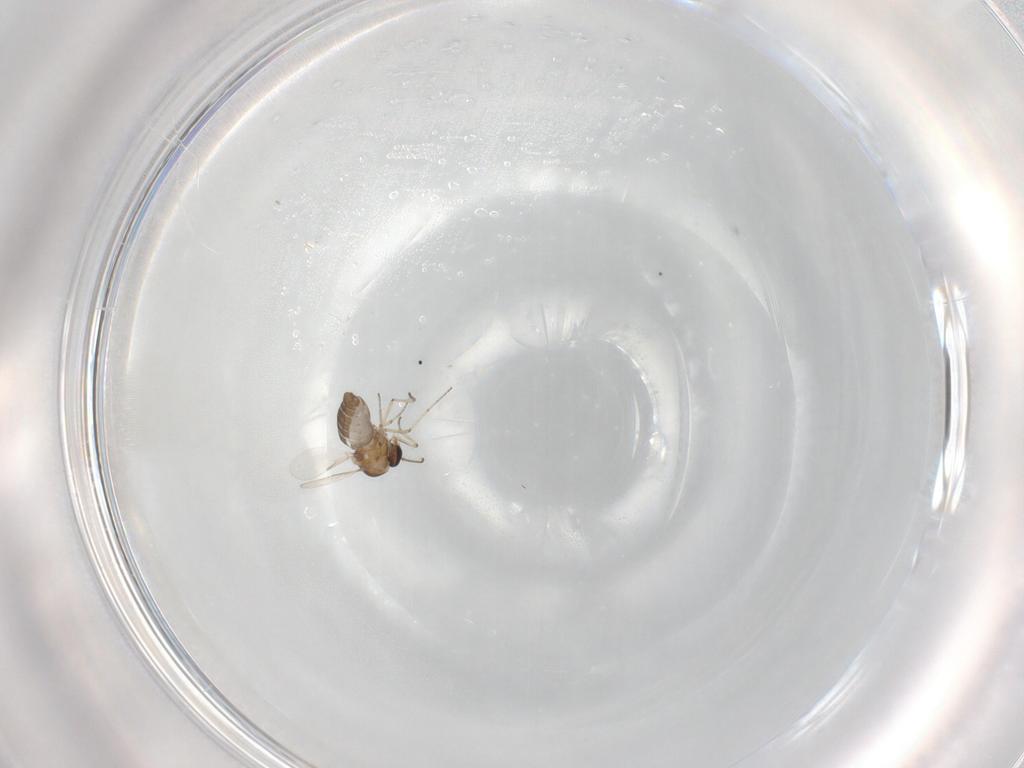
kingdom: Animalia
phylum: Arthropoda
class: Insecta
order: Diptera
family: Ceratopogonidae
